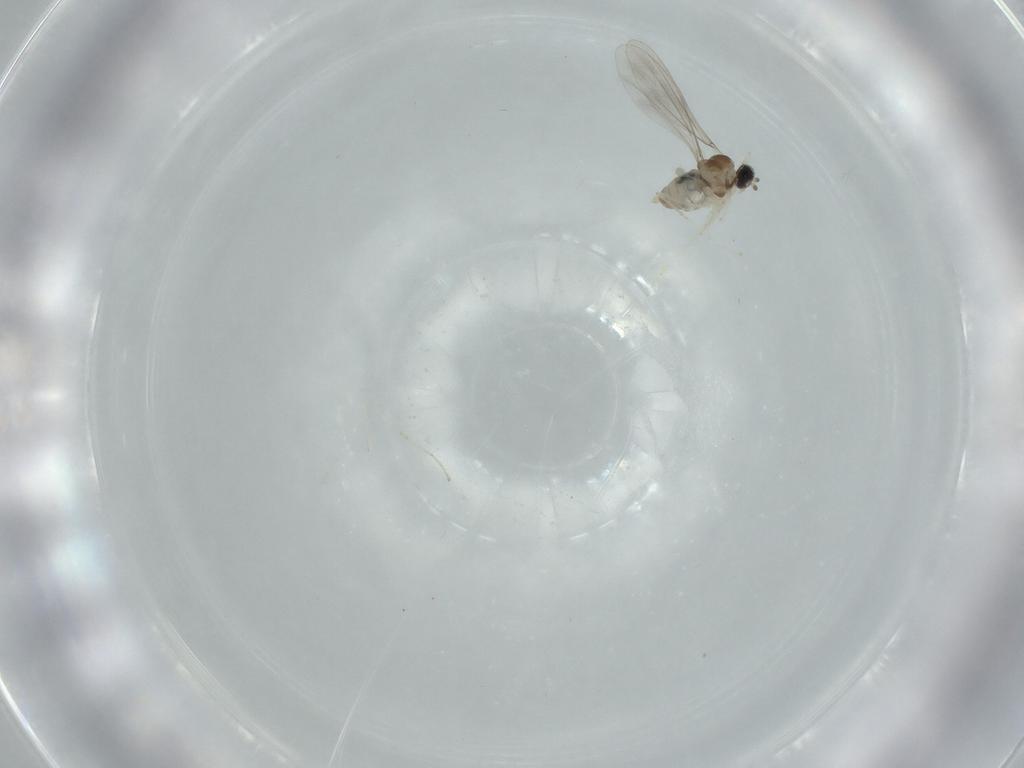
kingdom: Animalia
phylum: Arthropoda
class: Insecta
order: Diptera
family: Cecidomyiidae
